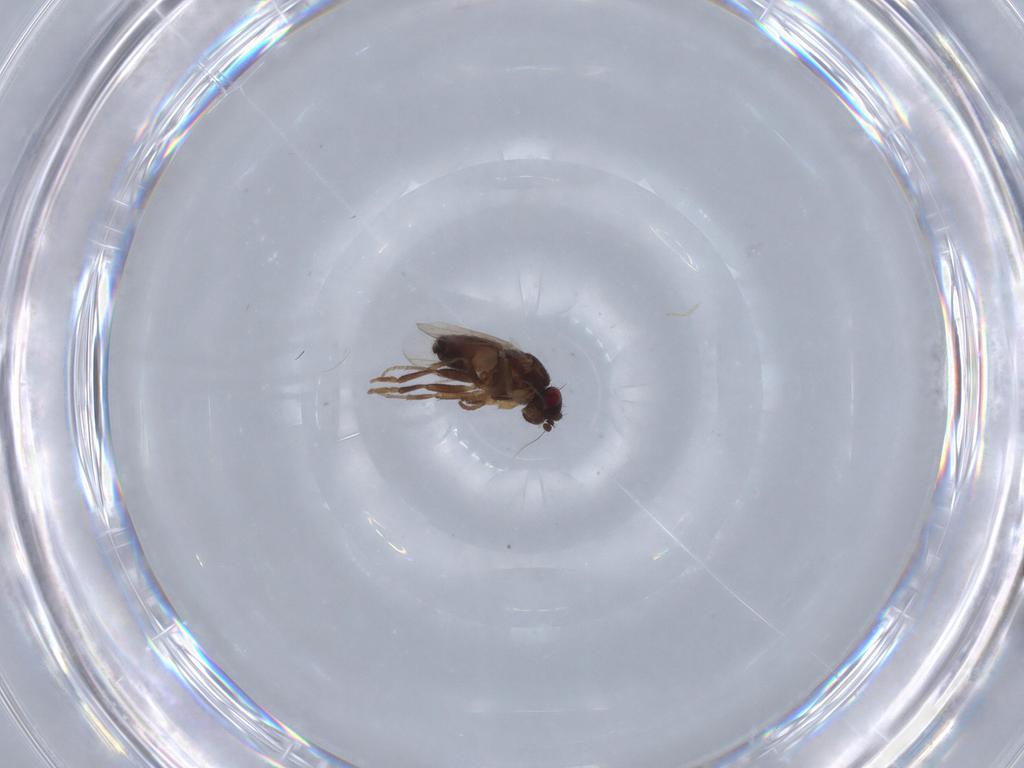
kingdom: Animalia
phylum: Arthropoda
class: Insecta
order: Diptera
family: Sphaeroceridae
